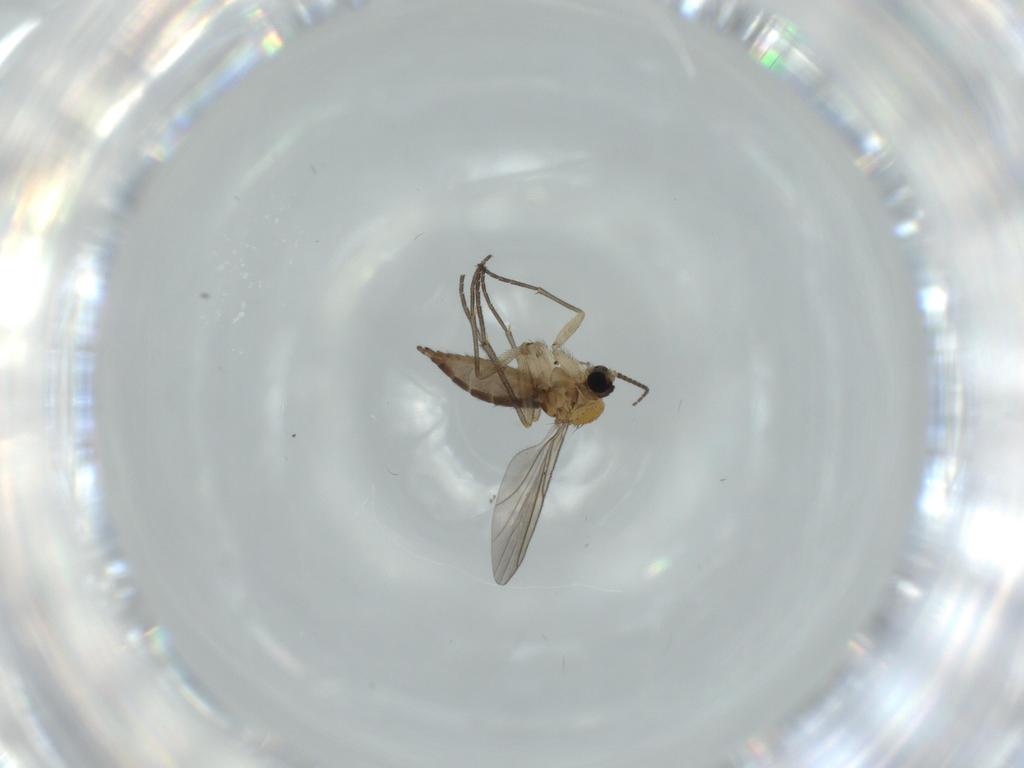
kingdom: Animalia
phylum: Arthropoda
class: Insecta
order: Diptera
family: Sciaridae
